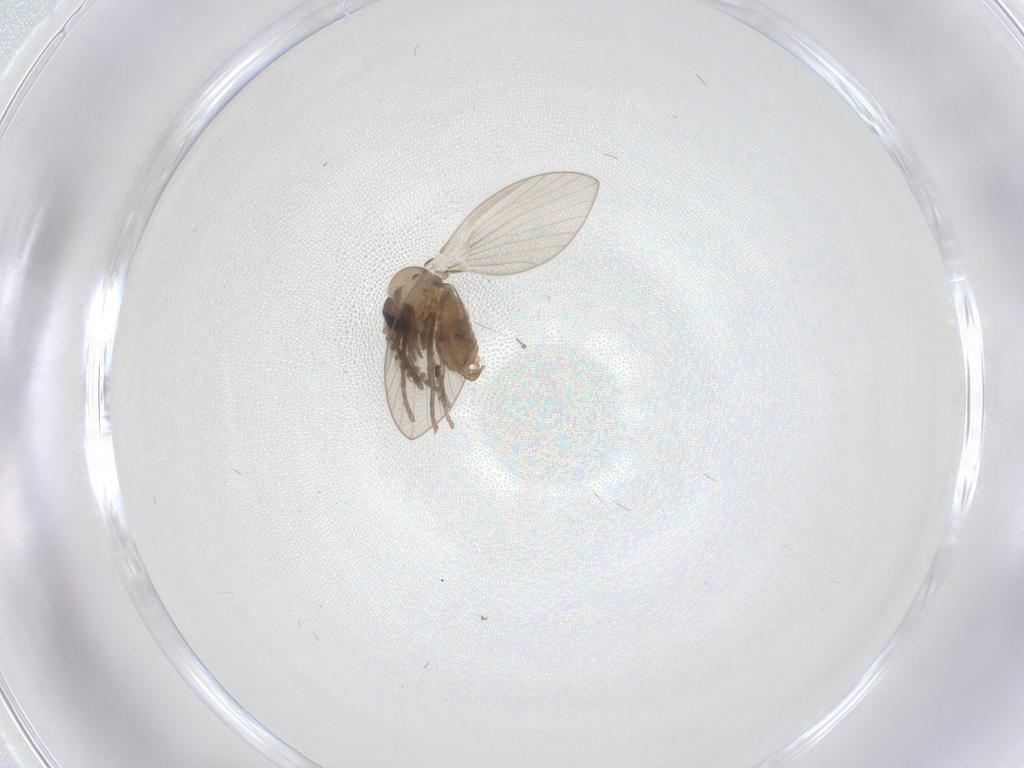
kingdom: Animalia
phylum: Arthropoda
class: Insecta
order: Diptera
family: Psychodidae
